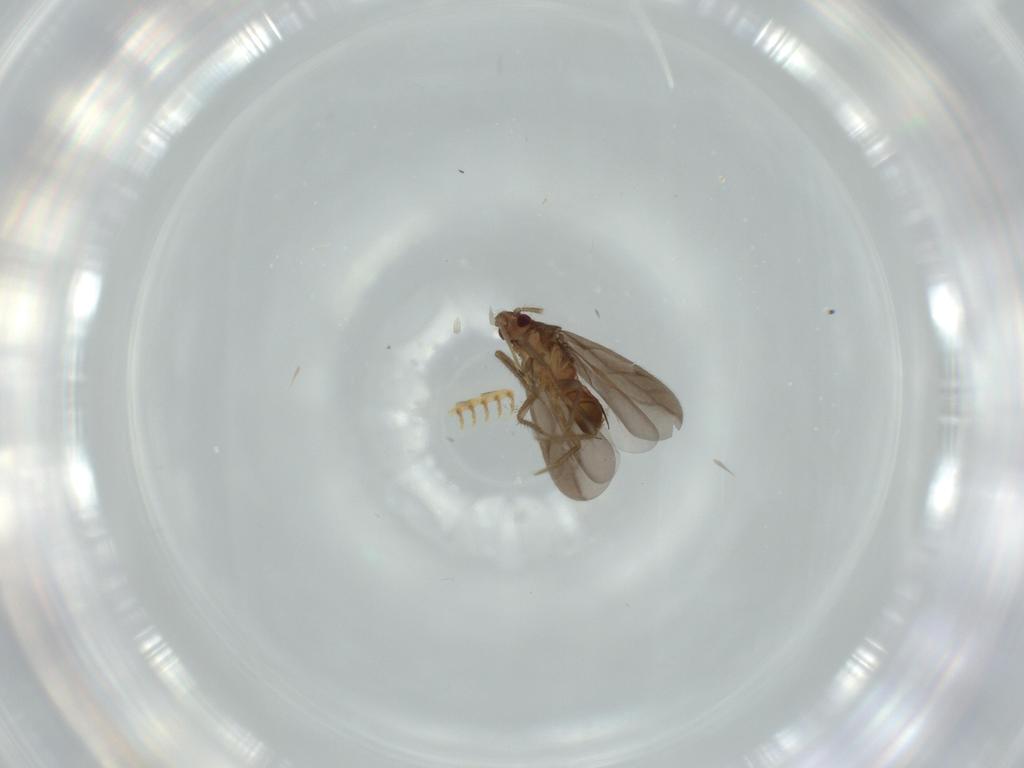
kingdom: Animalia
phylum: Arthropoda
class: Insecta
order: Hemiptera
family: Ceratocombidae
